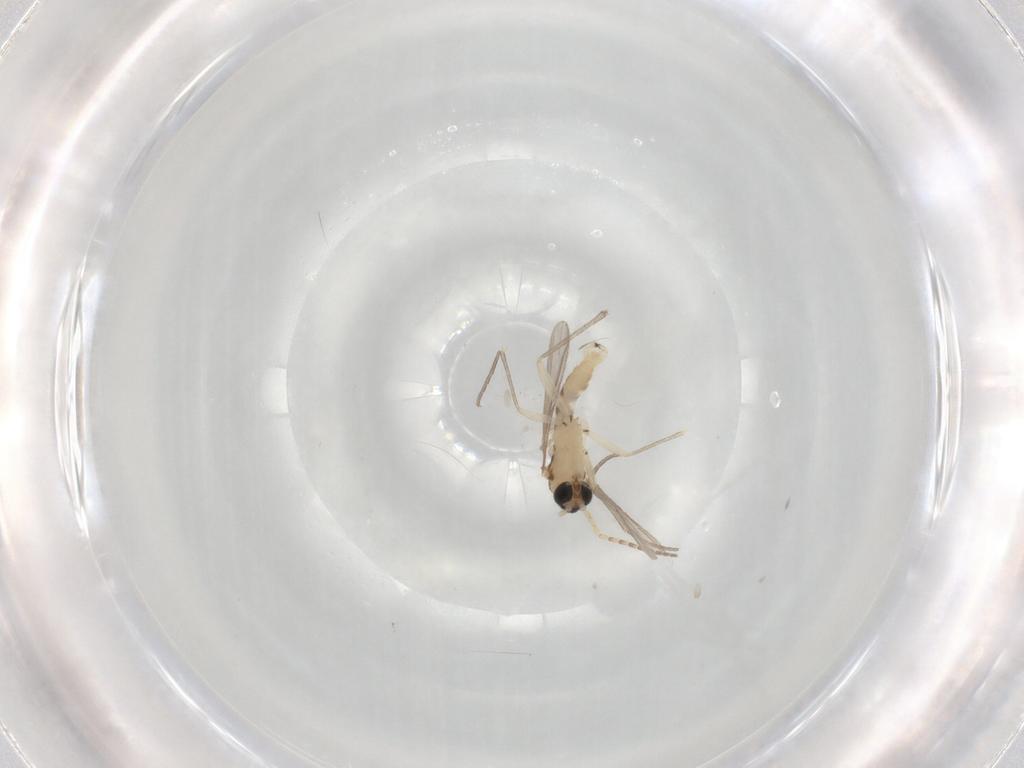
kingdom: Animalia
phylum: Arthropoda
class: Insecta
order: Diptera
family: Sciaridae
